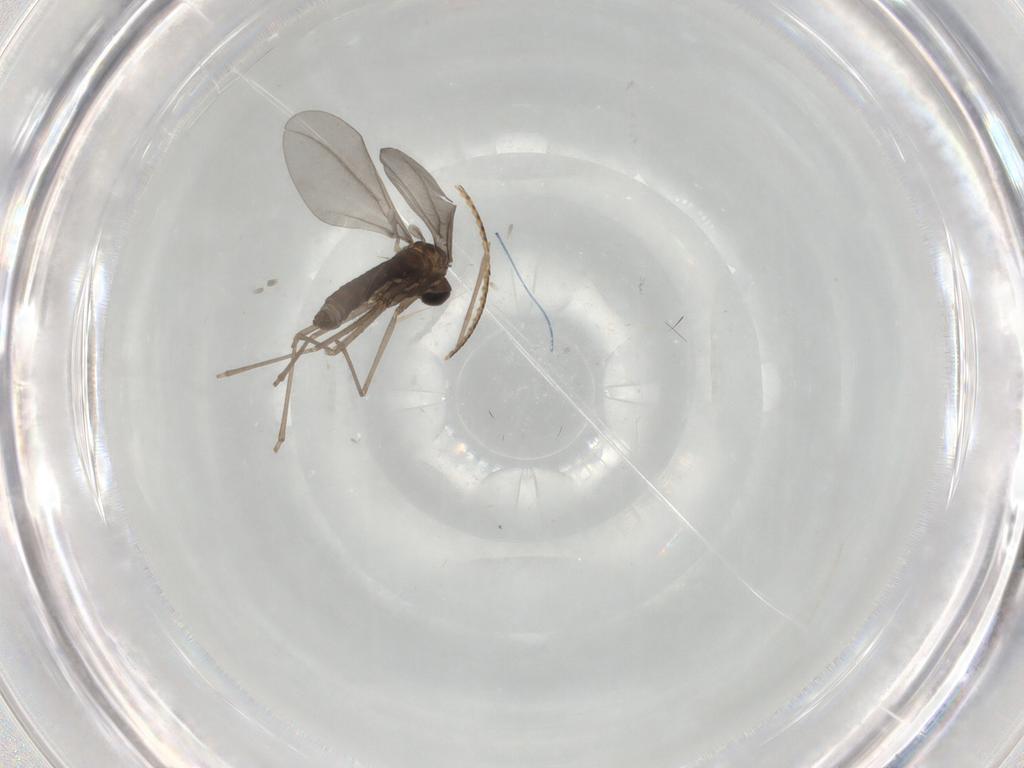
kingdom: Animalia
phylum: Arthropoda
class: Insecta
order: Diptera
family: Cecidomyiidae
